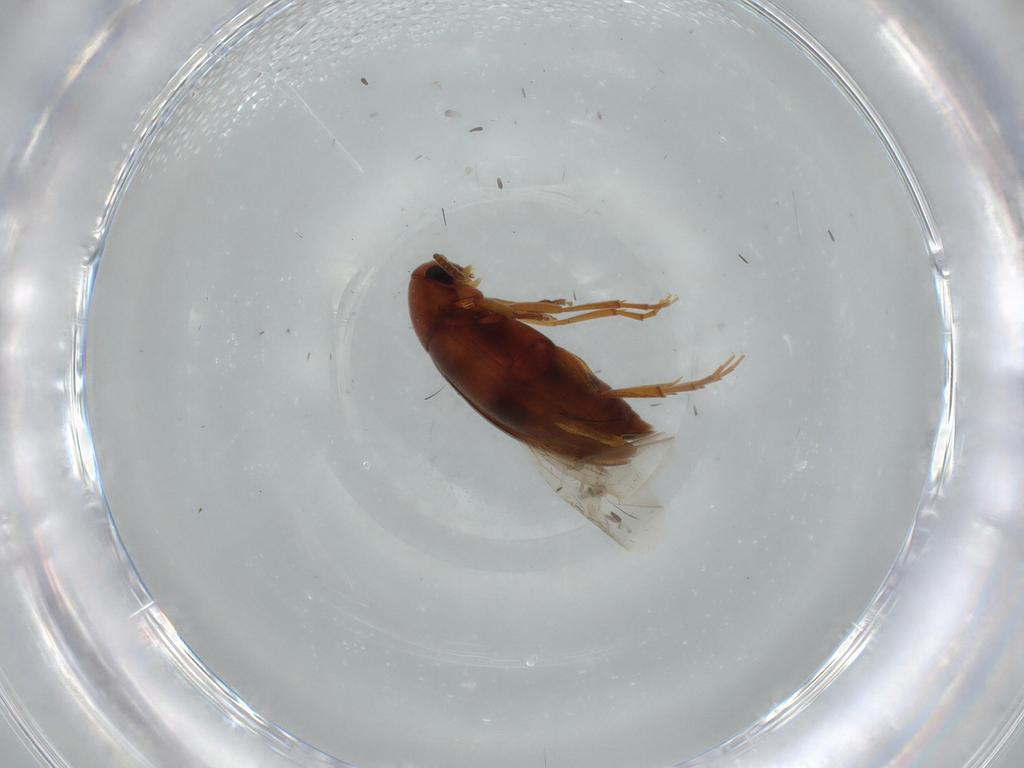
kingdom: Animalia
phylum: Arthropoda
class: Insecta
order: Coleoptera
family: Scraptiidae
